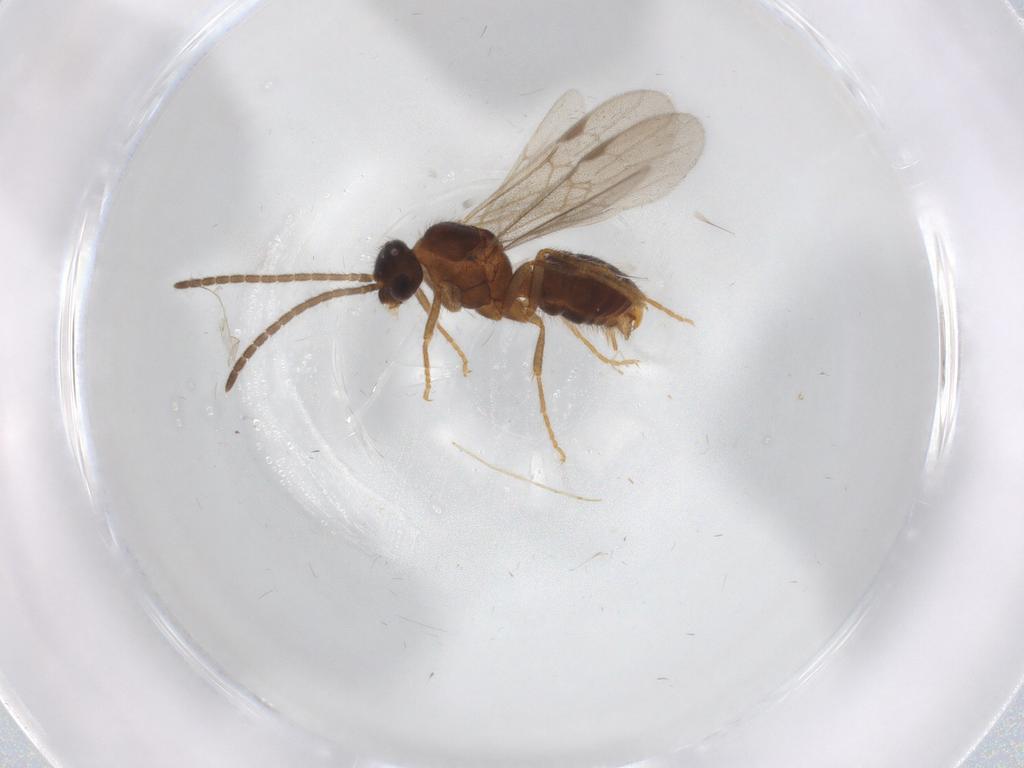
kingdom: Animalia
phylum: Arthropoda
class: Insecta
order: Hymenoptera
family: Formicidae
